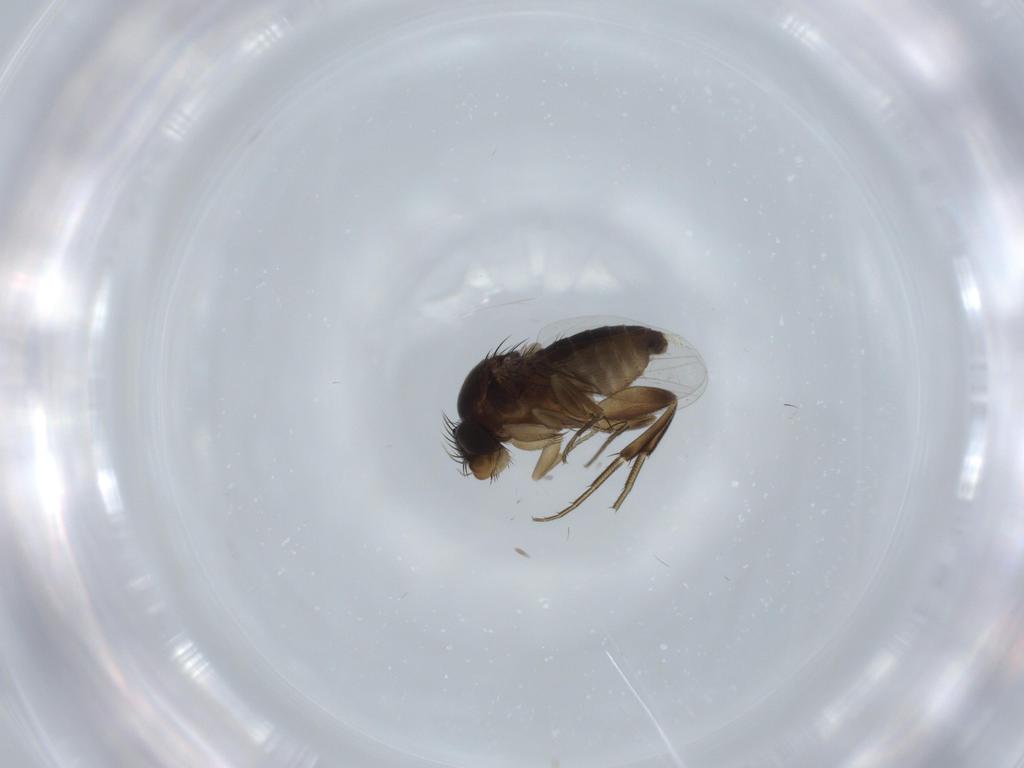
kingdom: Animalia
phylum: Arthropoda
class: Insecta
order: Diptera
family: Phoridae
